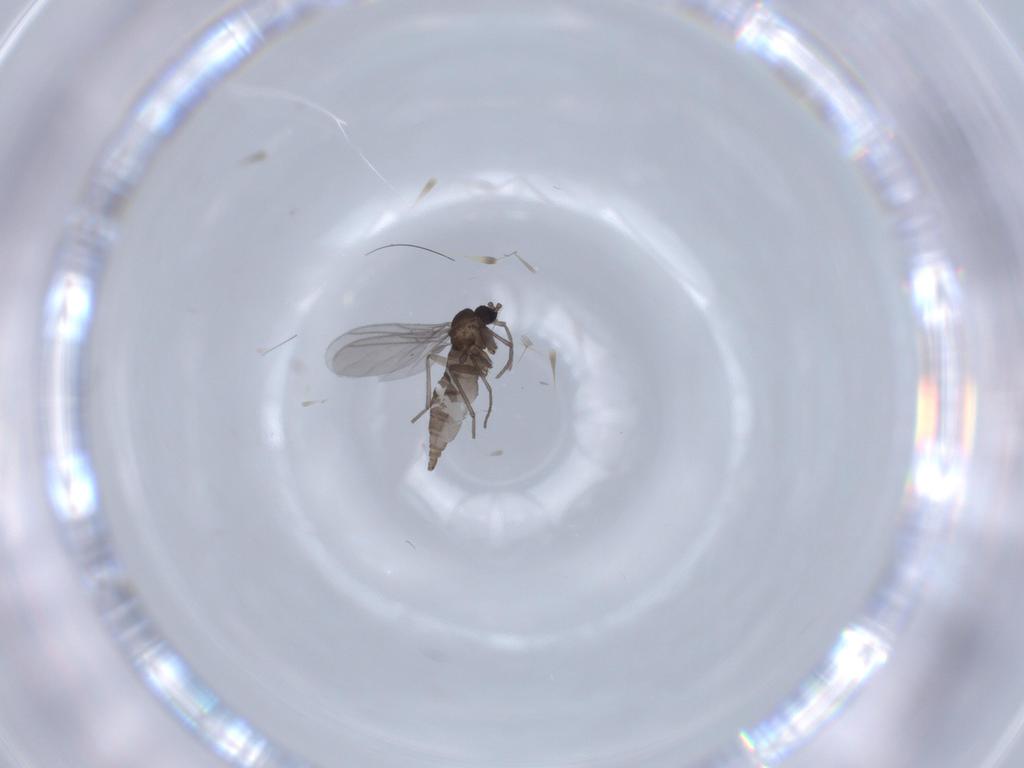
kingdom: Animalia
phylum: Arthropoda
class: Insecta
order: Diptera
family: Sciaridae
